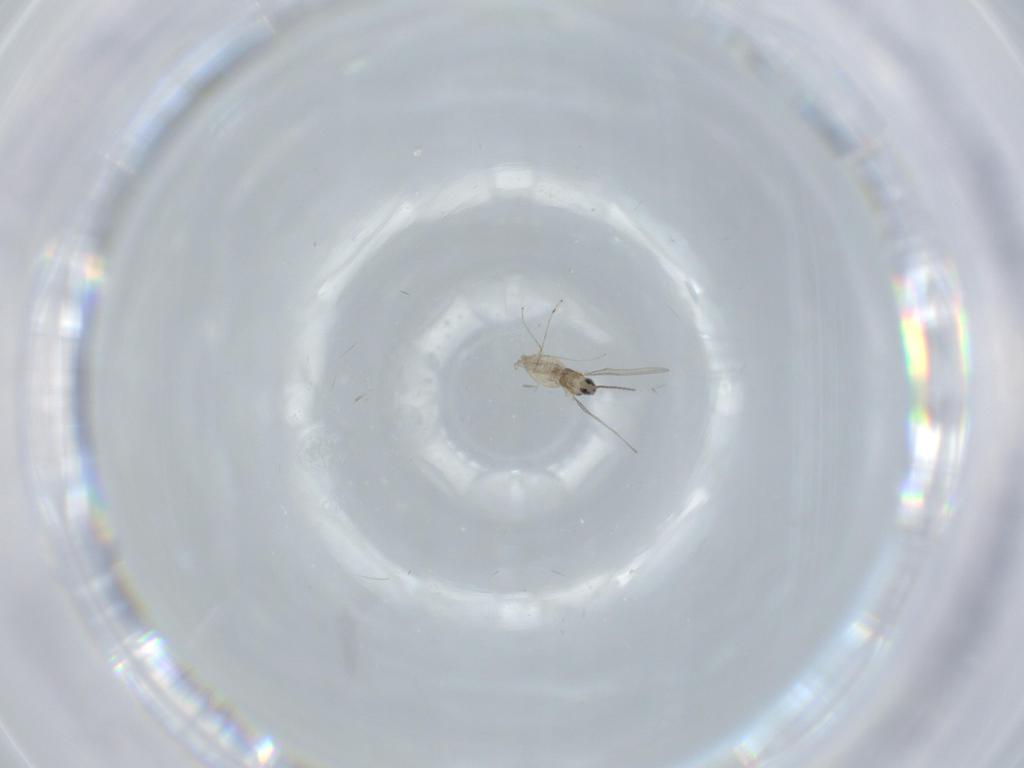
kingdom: Animalia
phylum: Arthropoda
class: Insecta
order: Diptera
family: Cecidomyiidae
